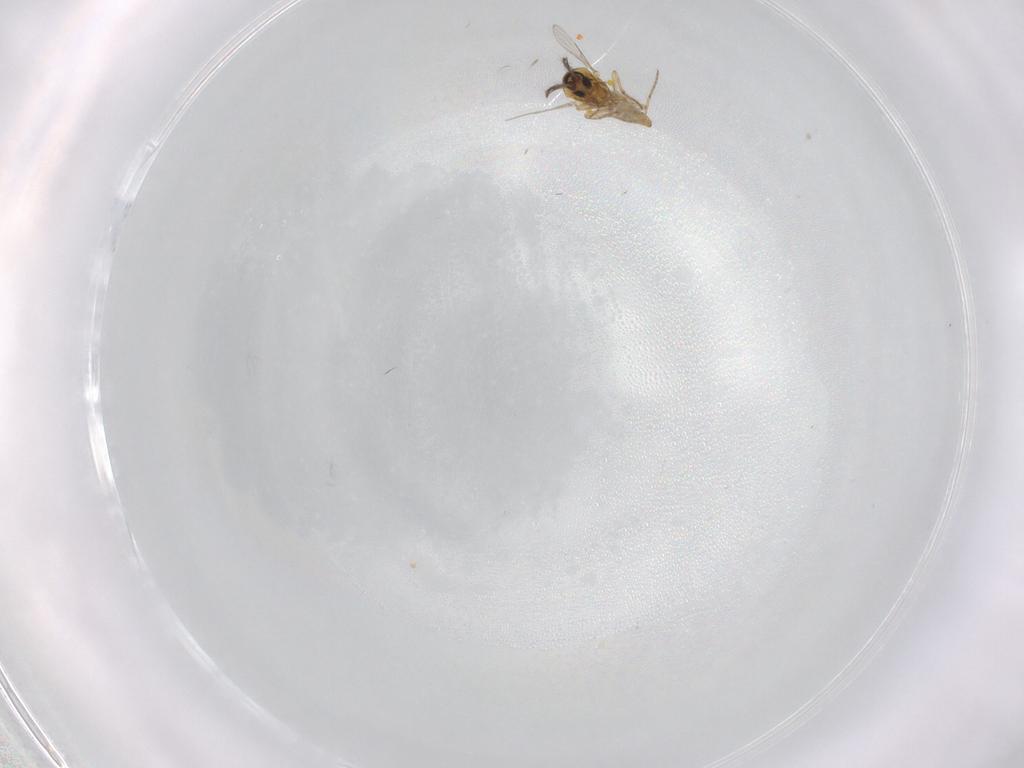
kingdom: Animalia
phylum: Arthropoda
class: Insecta
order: Diptera
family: Ceratopogonidae
